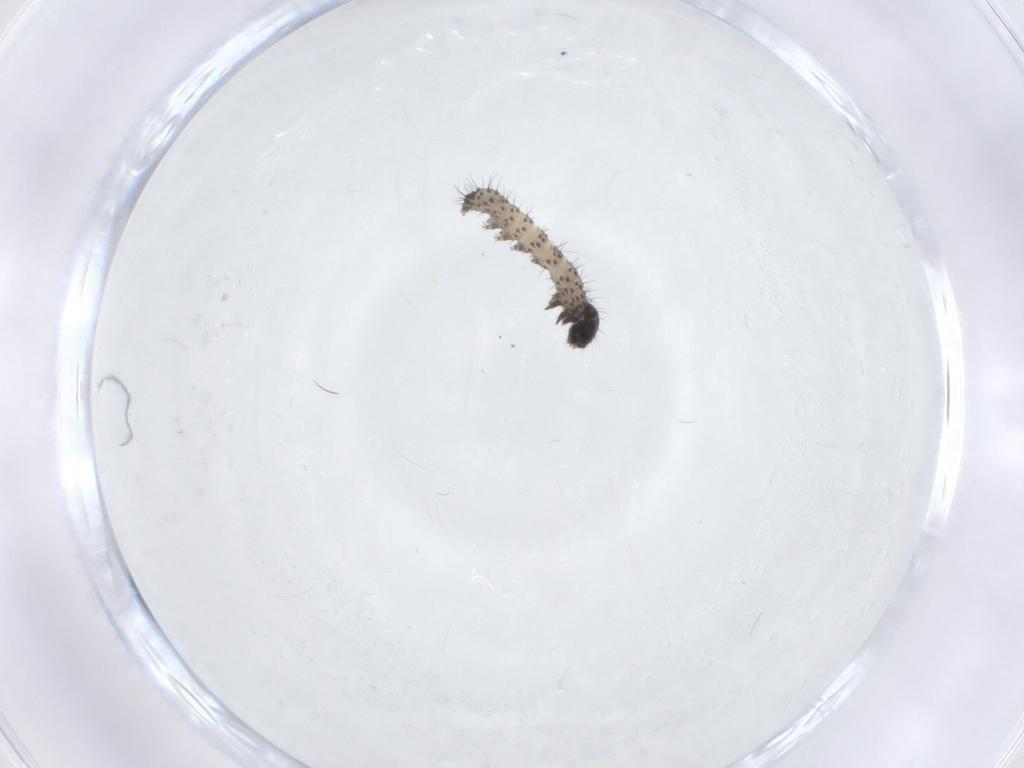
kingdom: Animalia
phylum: Arthropoda
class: Insecta
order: Lepidoptera
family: Noctuidae
